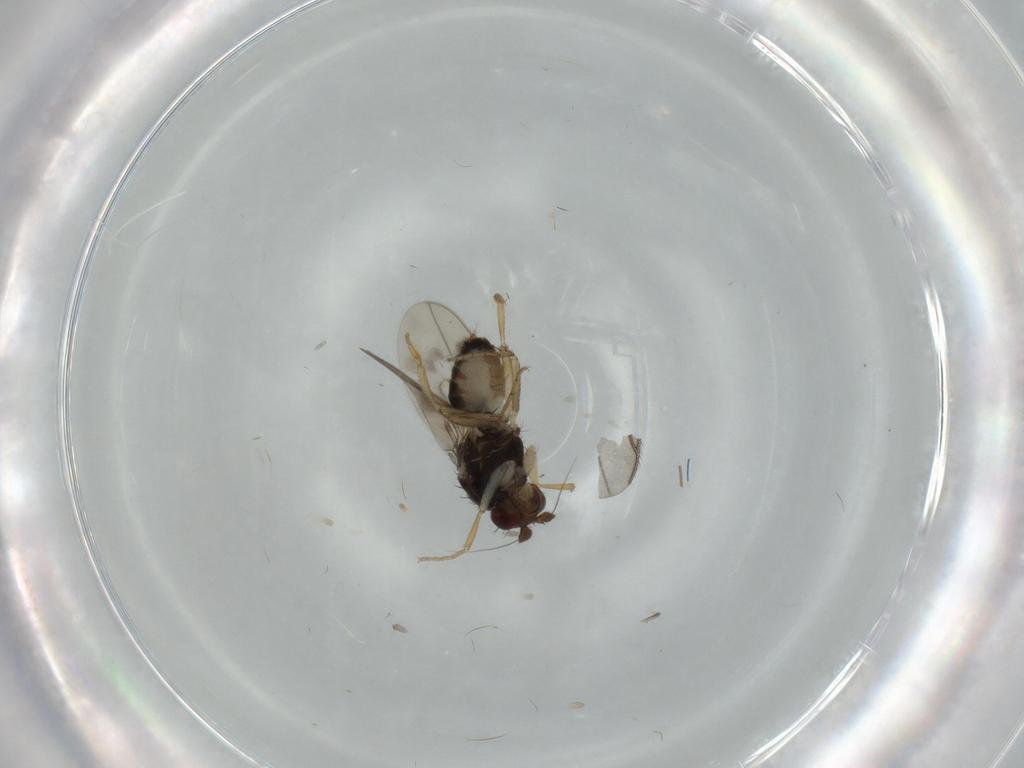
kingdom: Animalia
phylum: Arthropoda
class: Insecta
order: Diptera
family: Sphaeroceridae
